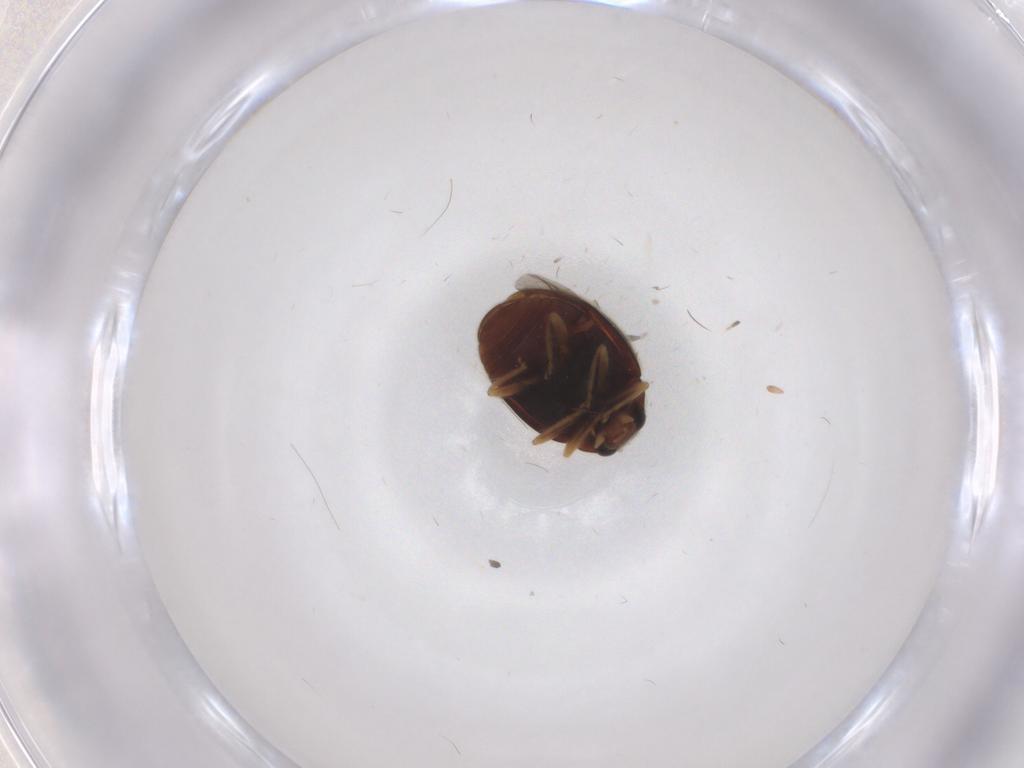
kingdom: Animalia
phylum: Arthropoda
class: Insecta
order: Coleoptera
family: Coccinellidae
